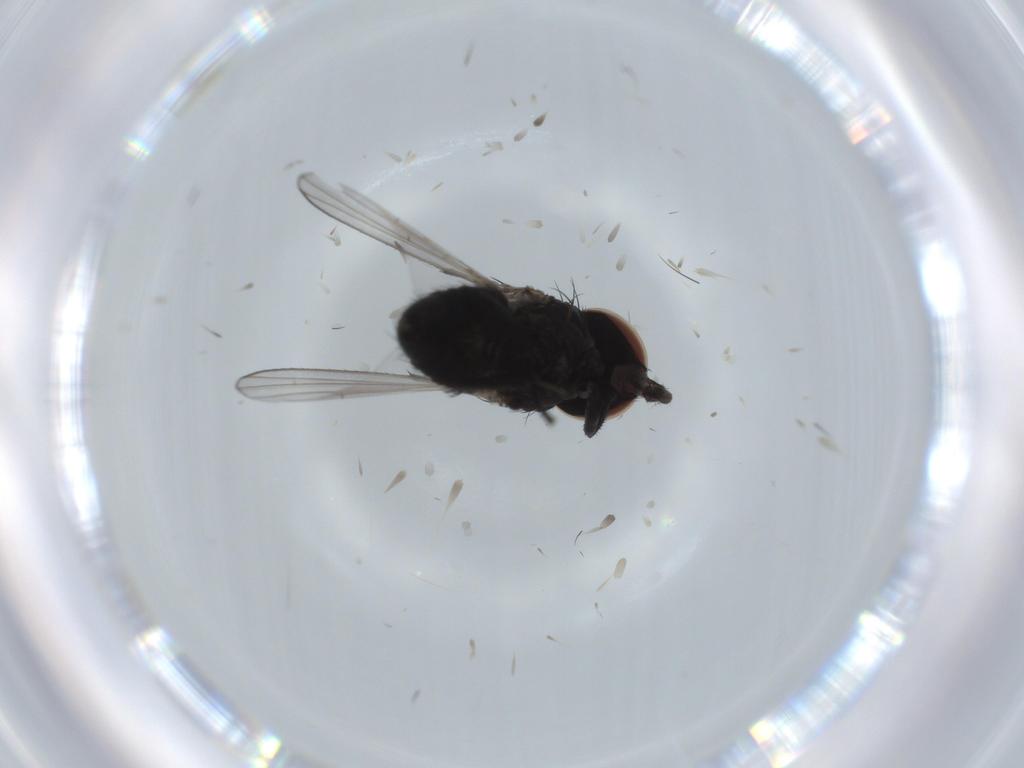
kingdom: Animalia
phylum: Arthropoda
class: Insecta
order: Diptera
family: Milichiidae
